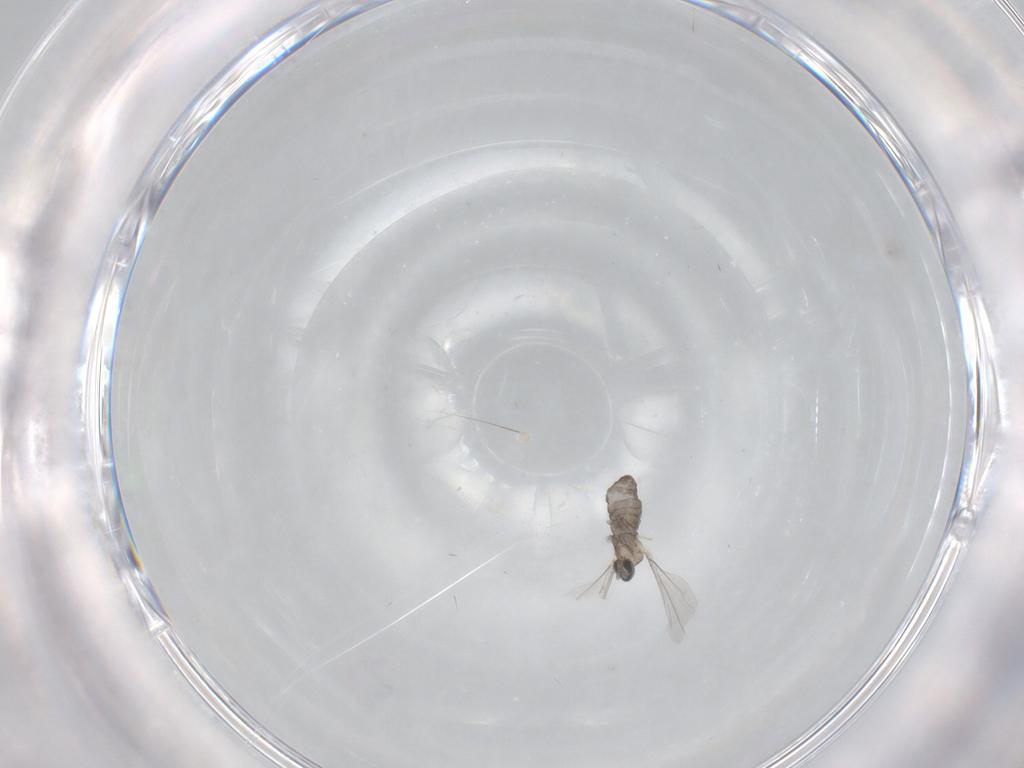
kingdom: Animalia
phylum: Arthropoda
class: Insecta
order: Diptera
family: Cecidomyiidae
